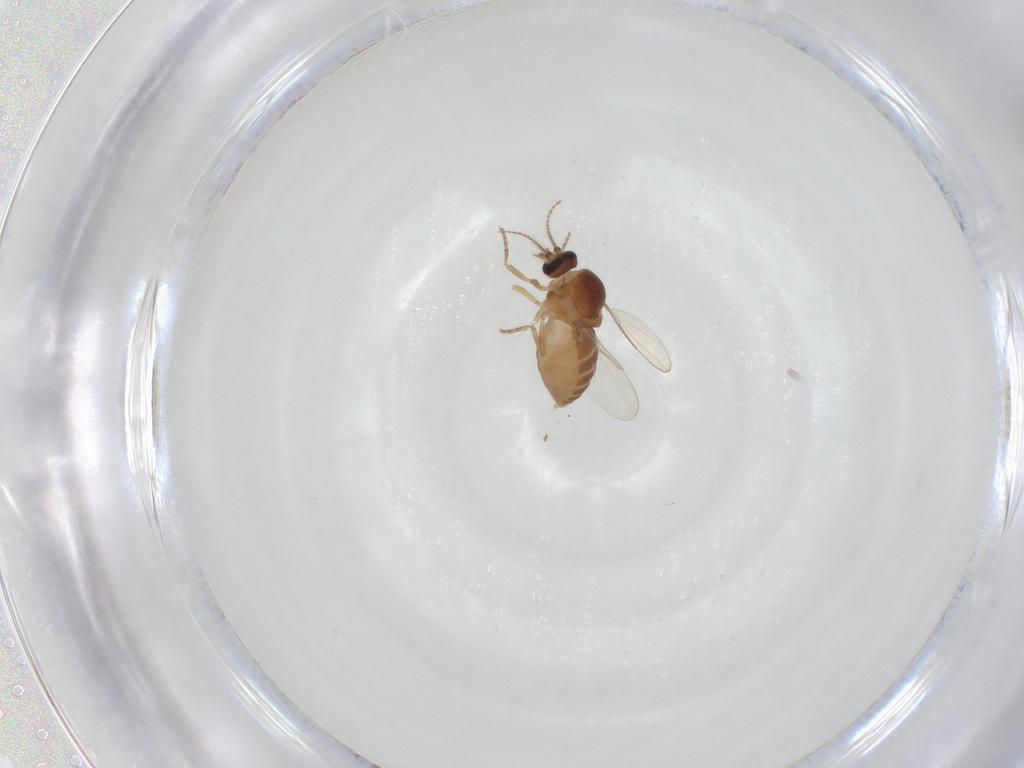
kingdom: Animalia
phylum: Arthropoda
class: Insecta
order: Diptera
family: Ceratopogonidae
